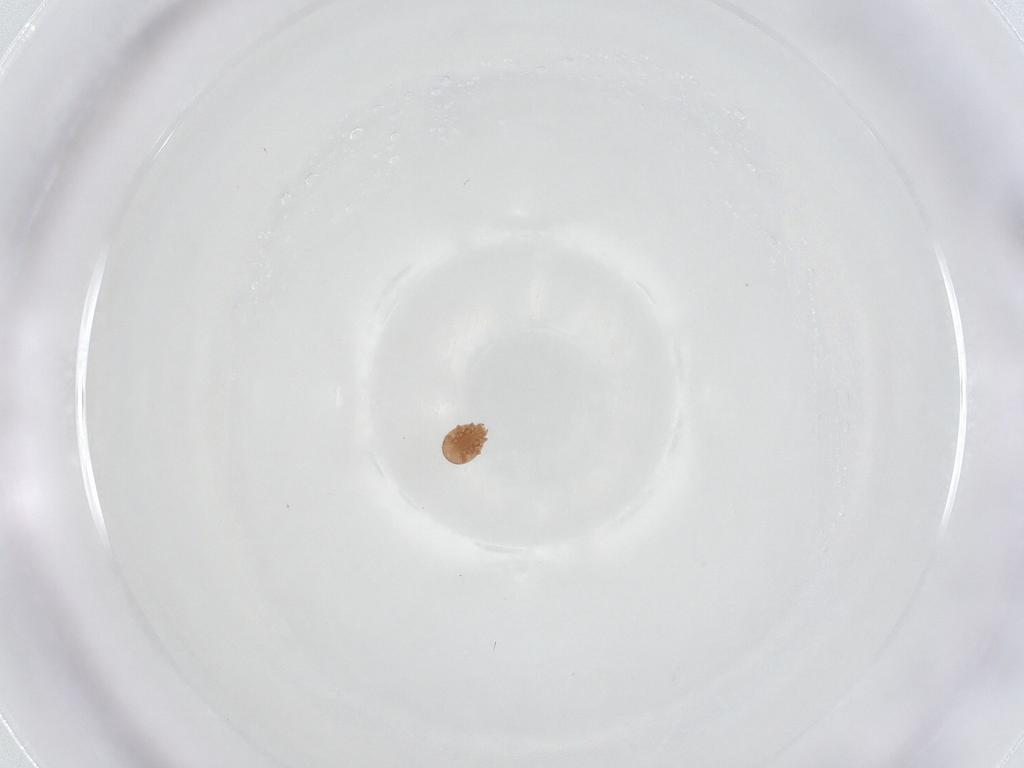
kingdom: Animalia
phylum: Arthropoda
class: Arachnida
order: Mesostigmata
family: Trematuridae
